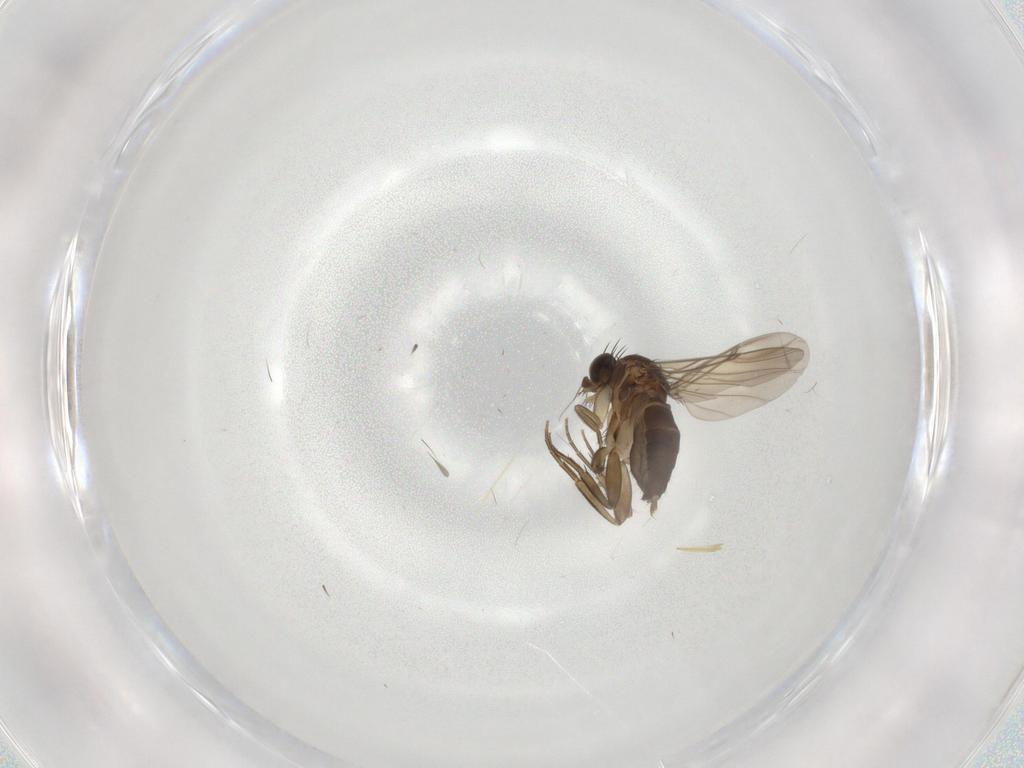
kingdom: Animalia
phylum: Arthropoda
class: Insecta
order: Diptera
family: Phoridae
